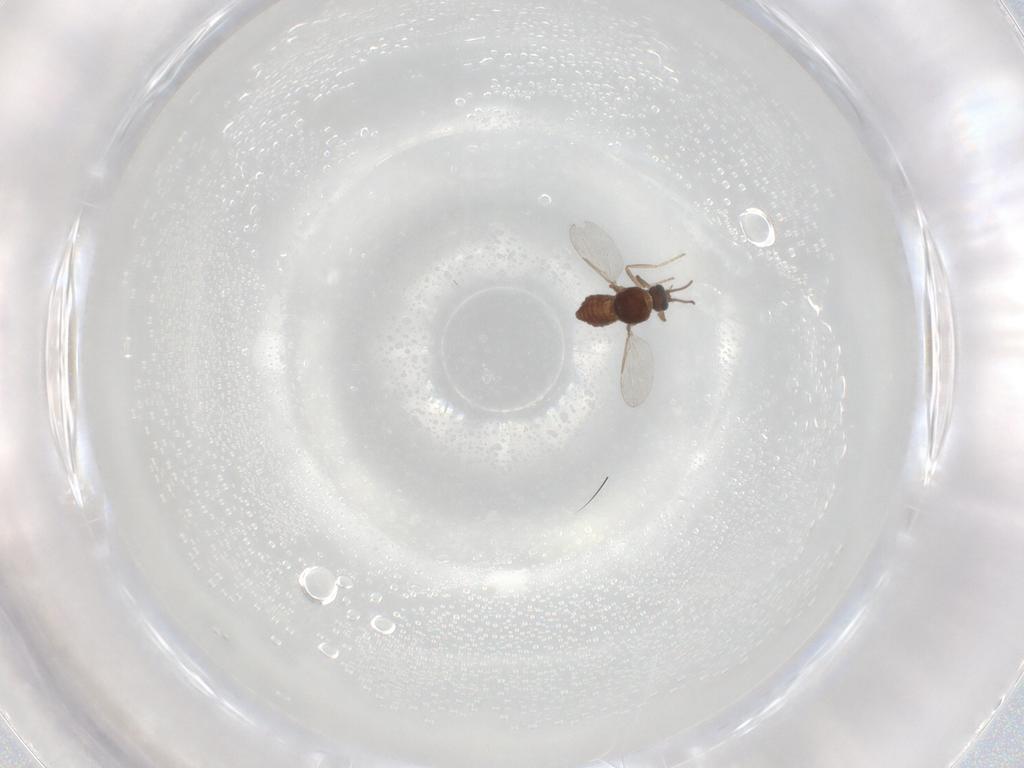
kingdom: Animalia
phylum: Arthropoda
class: Insecta
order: Diptera
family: Ceratopogonidae
